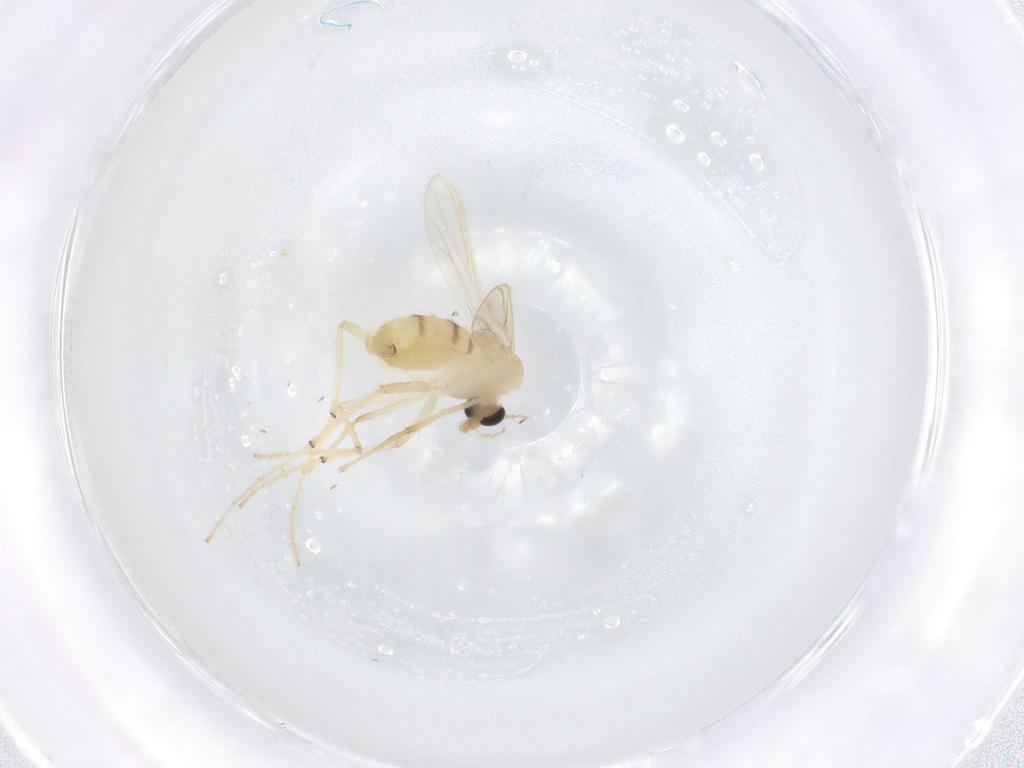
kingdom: Animalia
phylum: Arthropoda
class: Insecta
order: Diptera
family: Chironomidae
